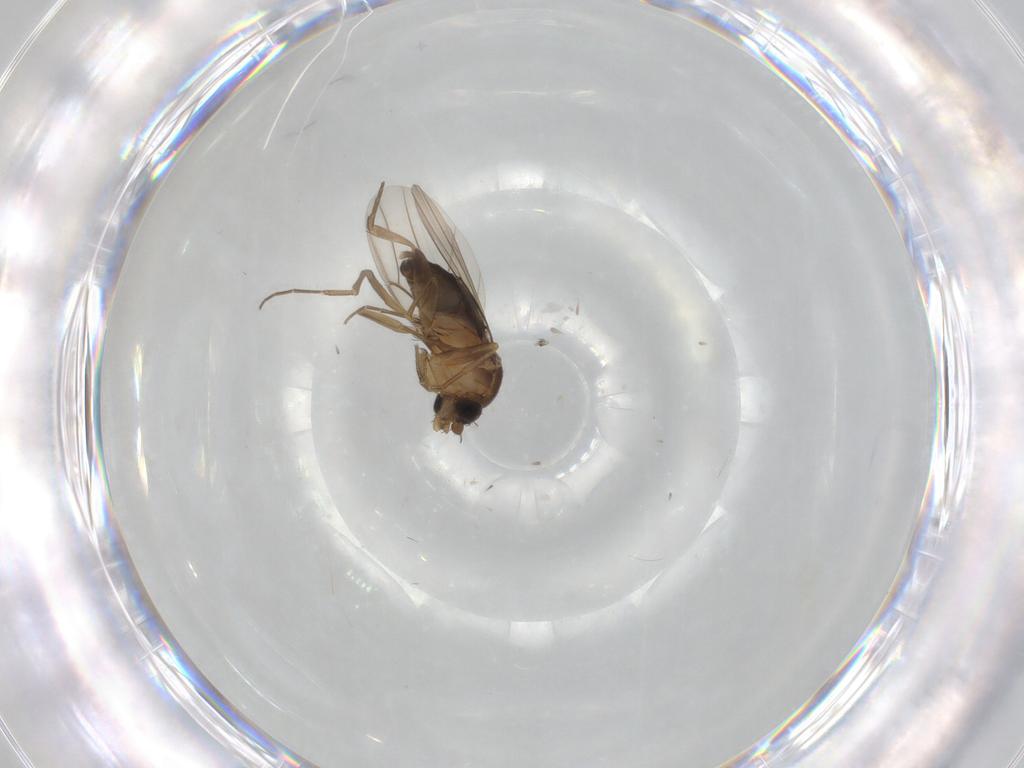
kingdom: Animalia
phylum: Arthropoda
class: Insecta
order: Diptera
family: Phoridae
